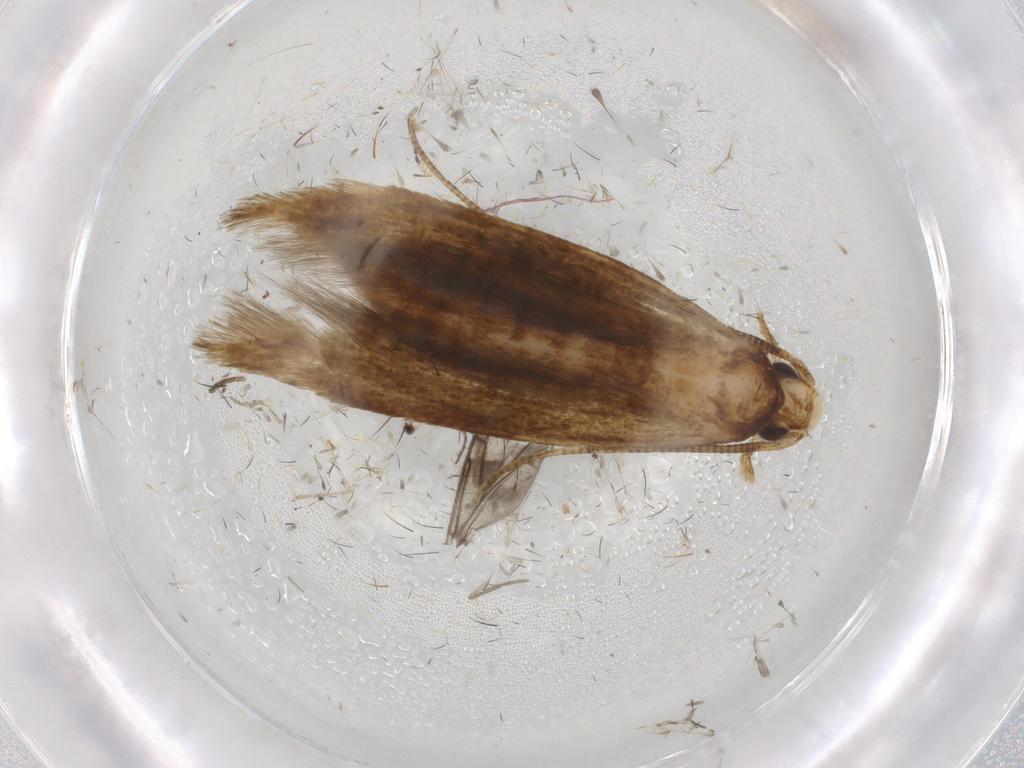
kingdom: Animalia
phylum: Arthropoda
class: Insecta
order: Lepidoptera
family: Tineidae
